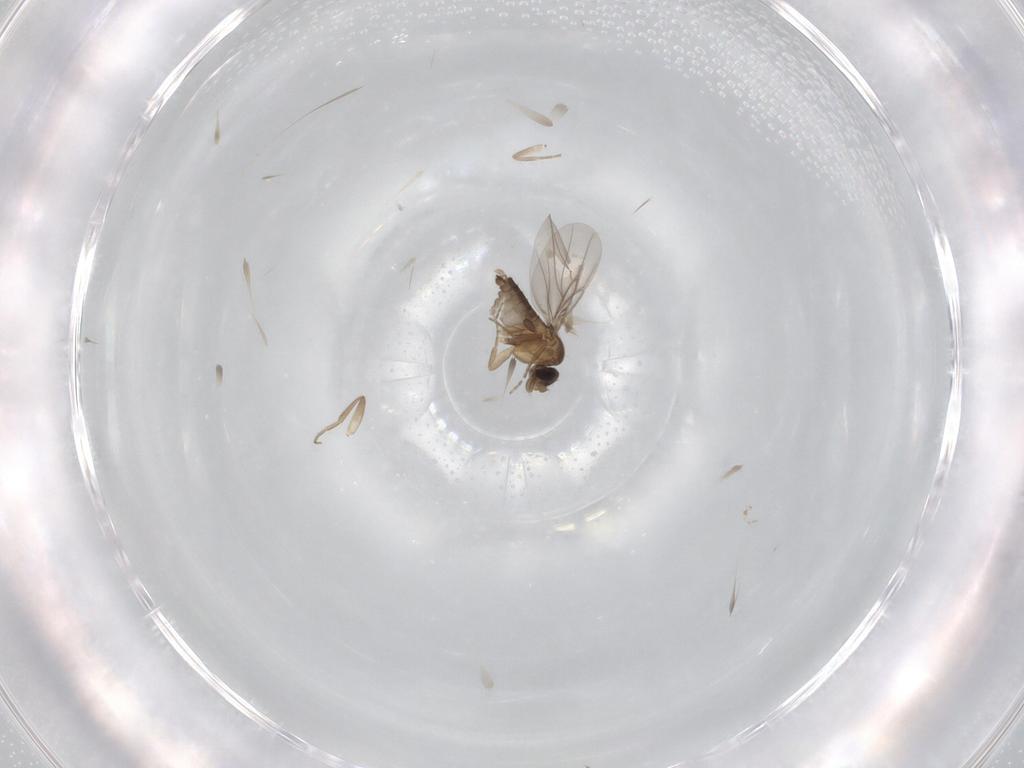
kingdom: Animalia
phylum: Arthropoda
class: Insecta
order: Diptera
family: Phoridae
